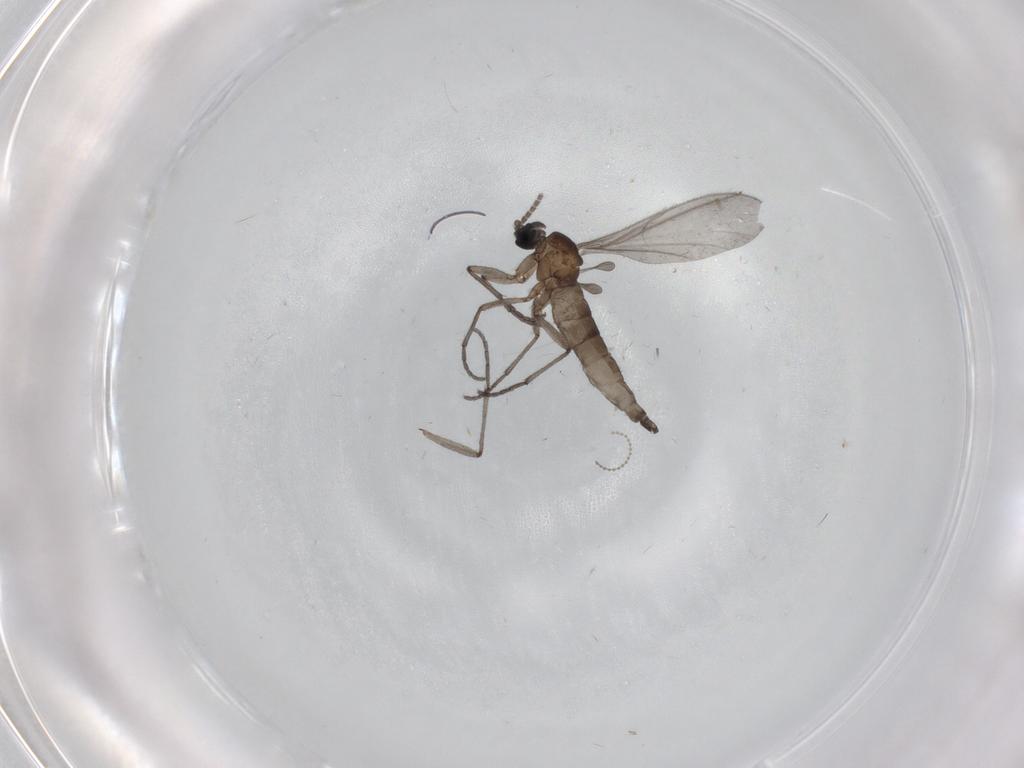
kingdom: Animalia
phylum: Arthropoda
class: Insecta
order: Diptera
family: Sciaridae
